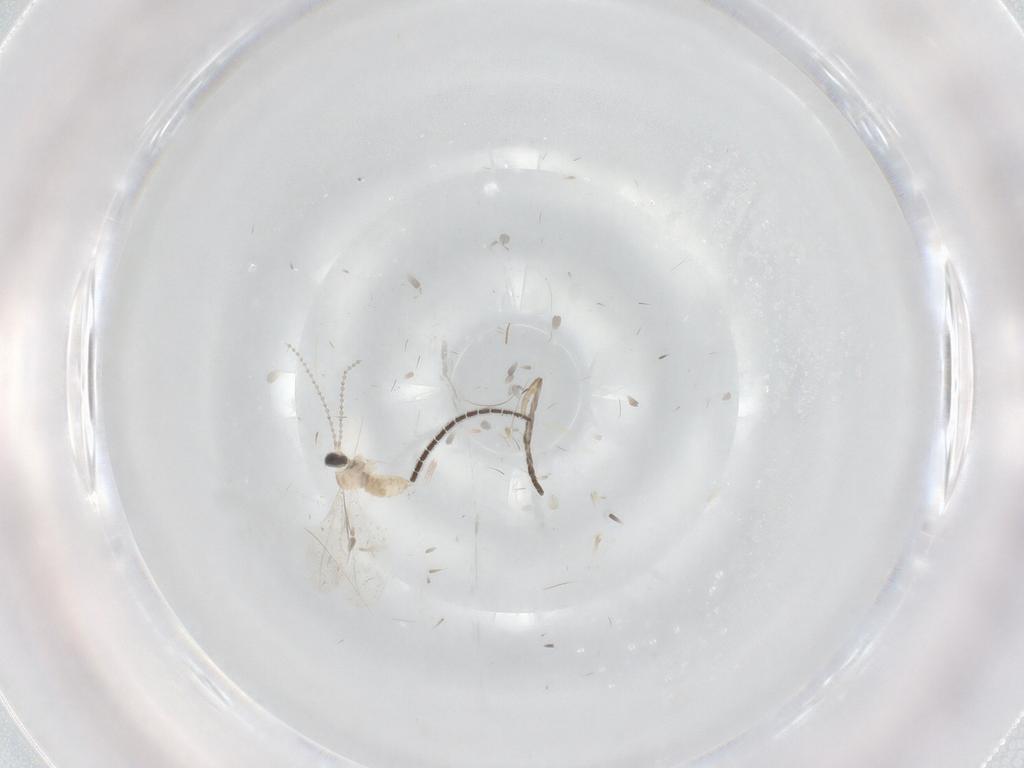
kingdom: Animalia
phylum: Arthropoda
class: Insecta
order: Diptera
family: Cecidomyiidae
